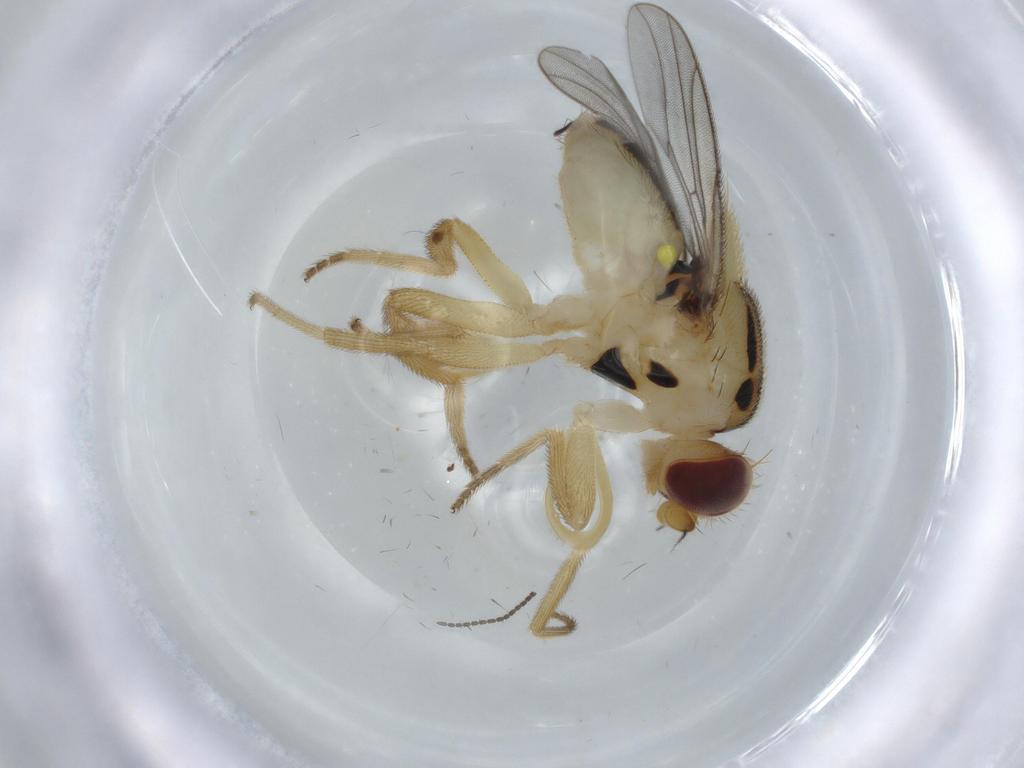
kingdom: Animalia
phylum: Arthropoda
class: Insecta
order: Diptera
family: Chloropidae
